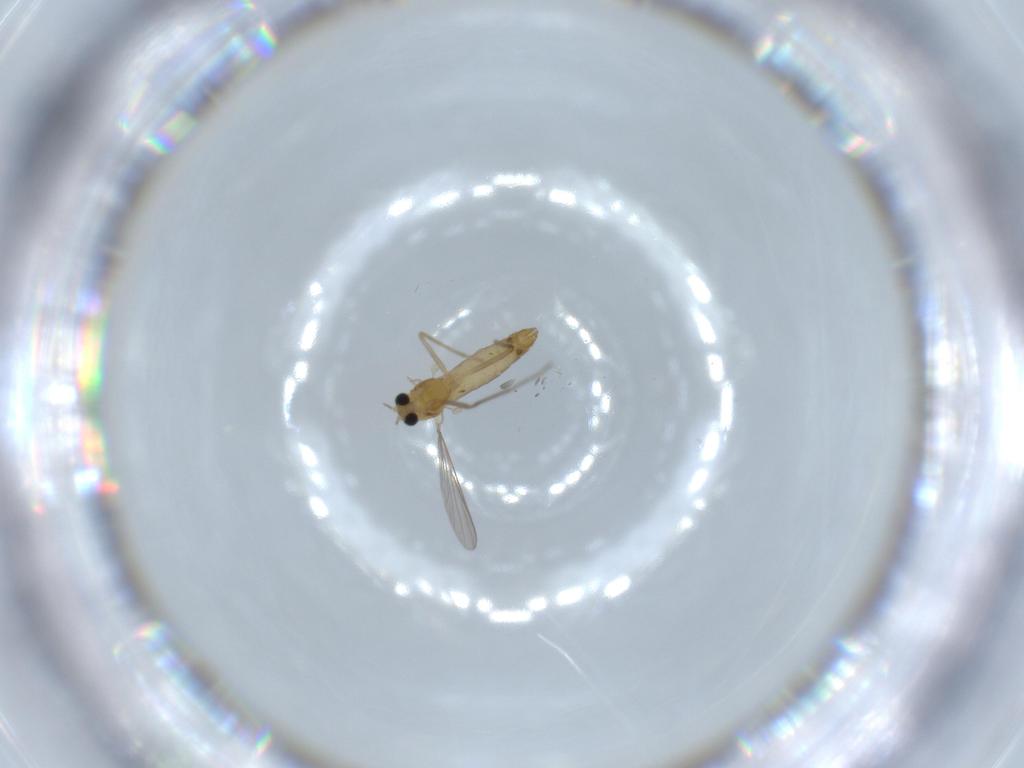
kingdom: Animalia
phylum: Arthropoda
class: Insecta
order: Diptera
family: Chironomidae
